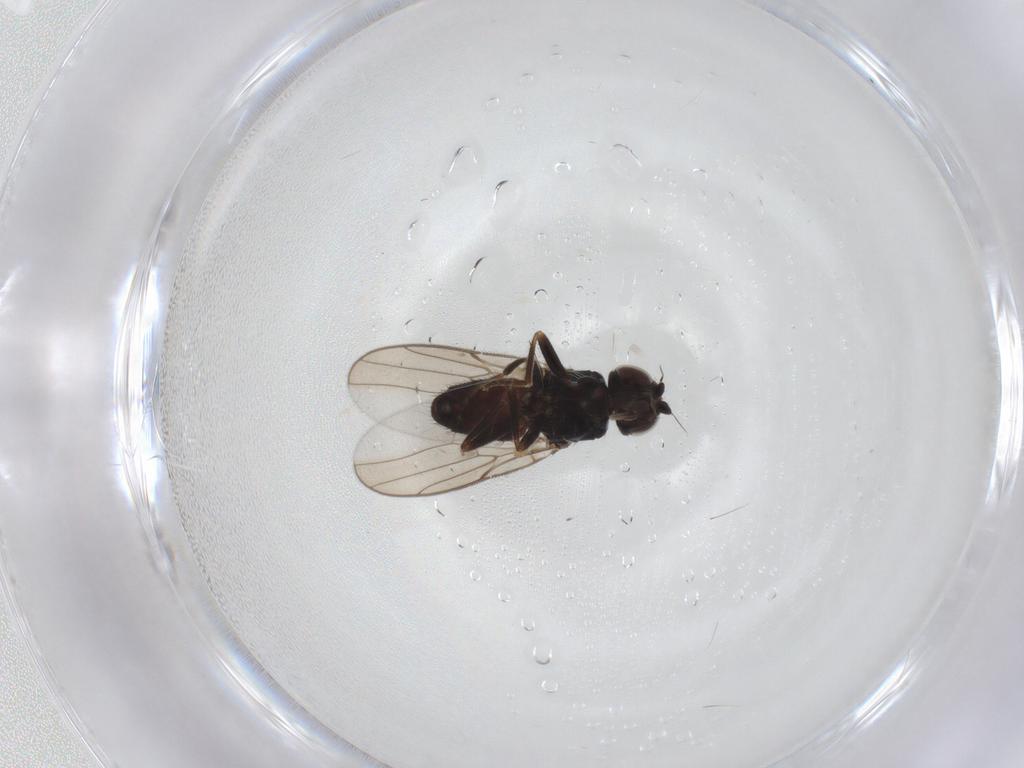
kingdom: Animalia
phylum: Arthropoda
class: Insecta
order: Diptera
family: Chloropidae
